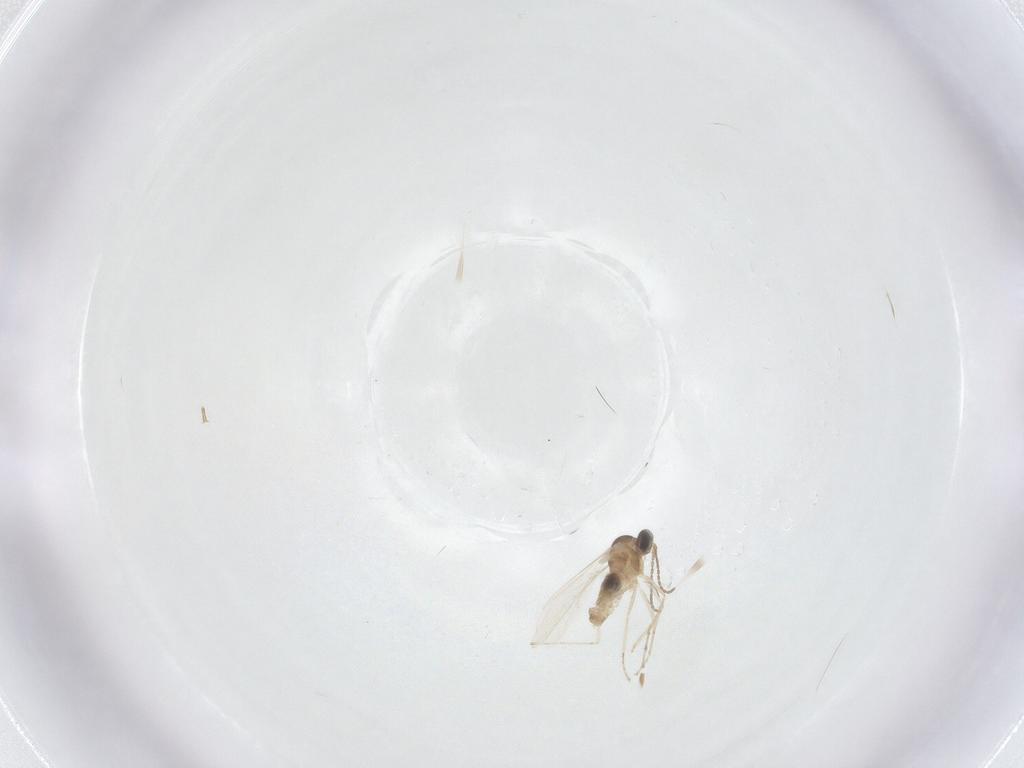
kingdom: Animalia
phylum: Arthropoda
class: Insecta
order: Diptera
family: Cecidomyiidae
